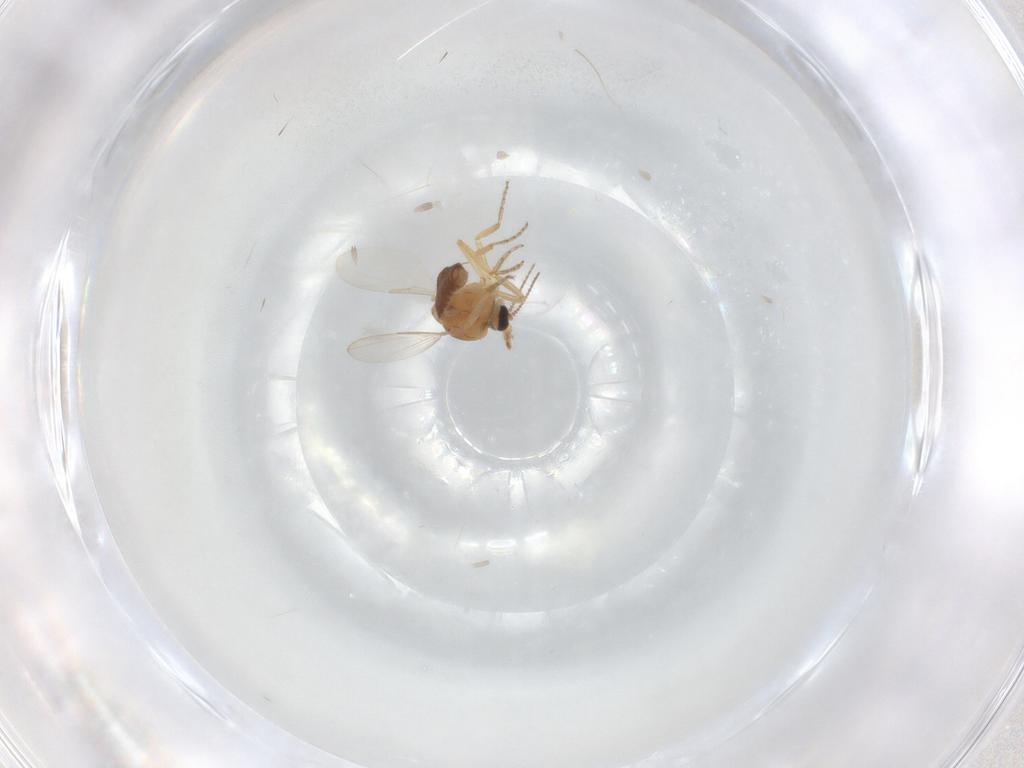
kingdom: Animalia
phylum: Arthropoda
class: Insecta
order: Diptera
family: Ceratopogonidae
